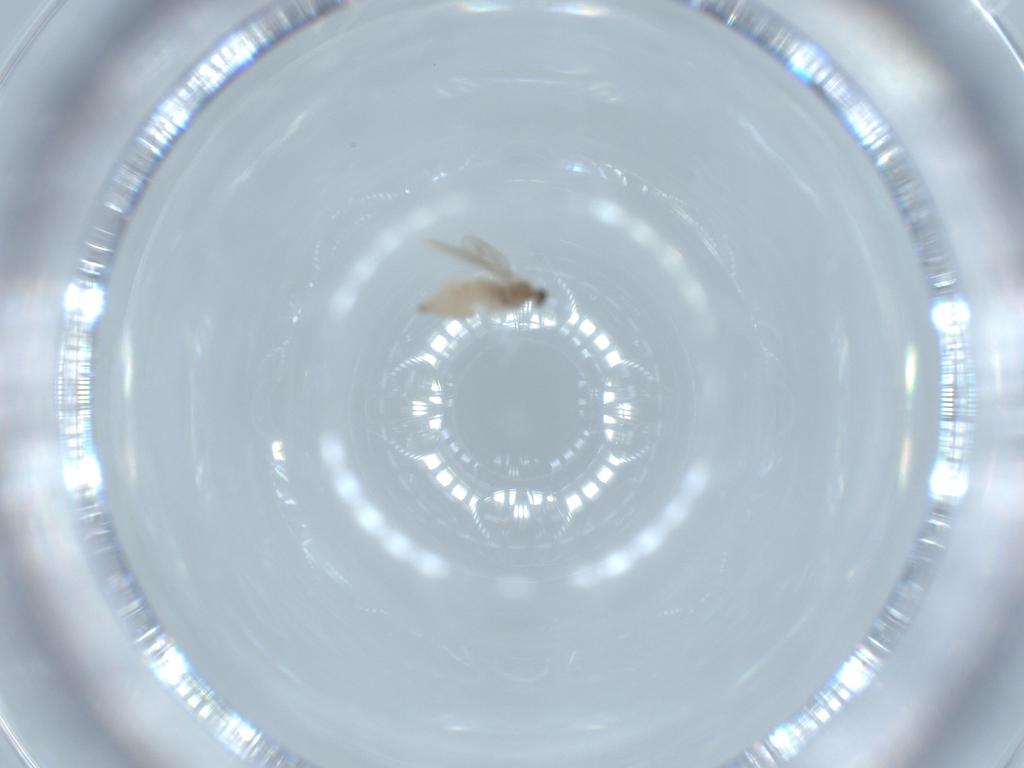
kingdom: Animalia
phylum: Arthropoda
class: Insecta
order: Diptera
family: Cecidomyiidae
